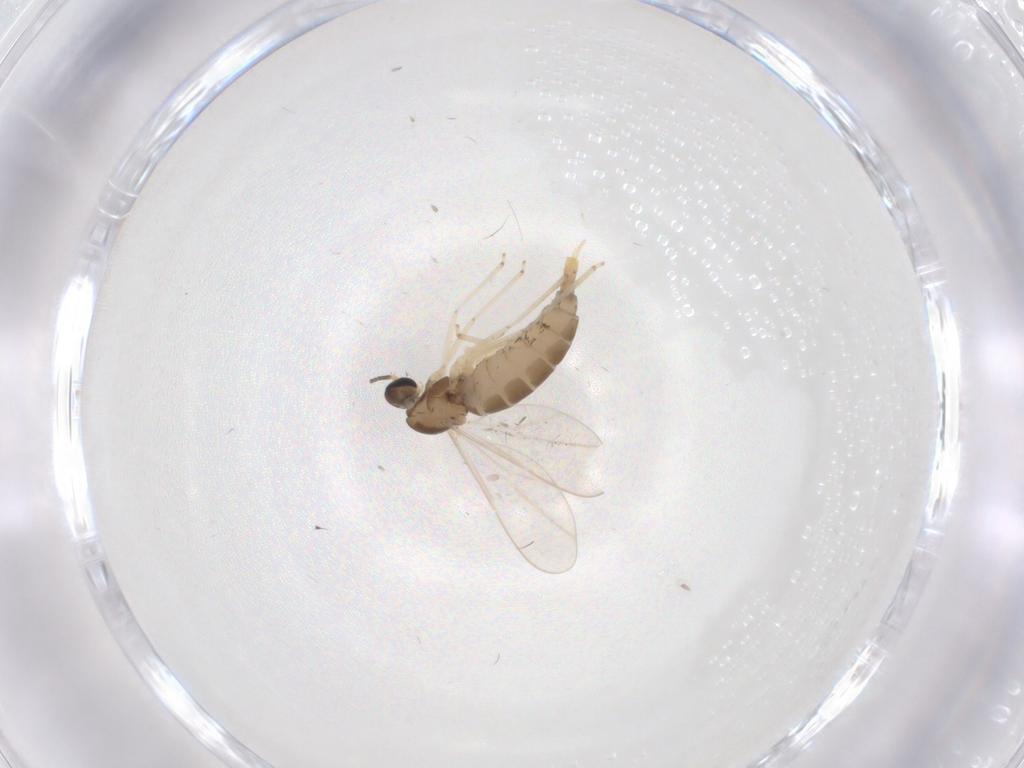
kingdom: Animalia
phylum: Arthropoda
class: Insecta
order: Diptera
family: Cecidomyiidae
